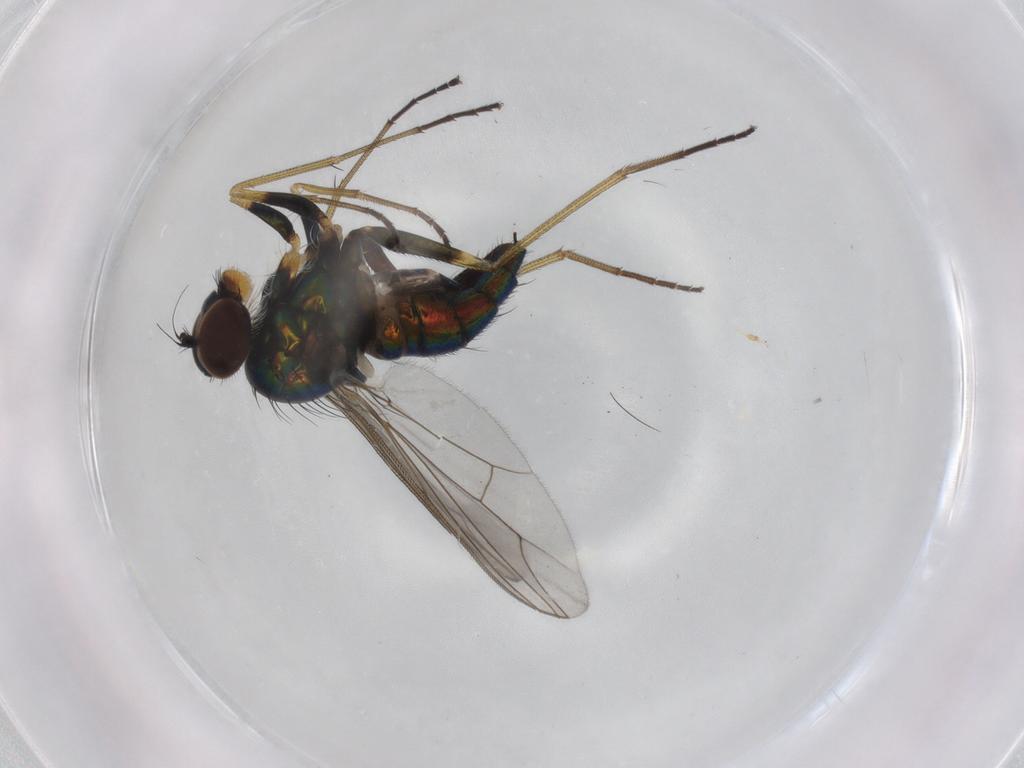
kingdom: Animalia
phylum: Arthropoda
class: Insecta
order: Diptera
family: Dolichopodidae
